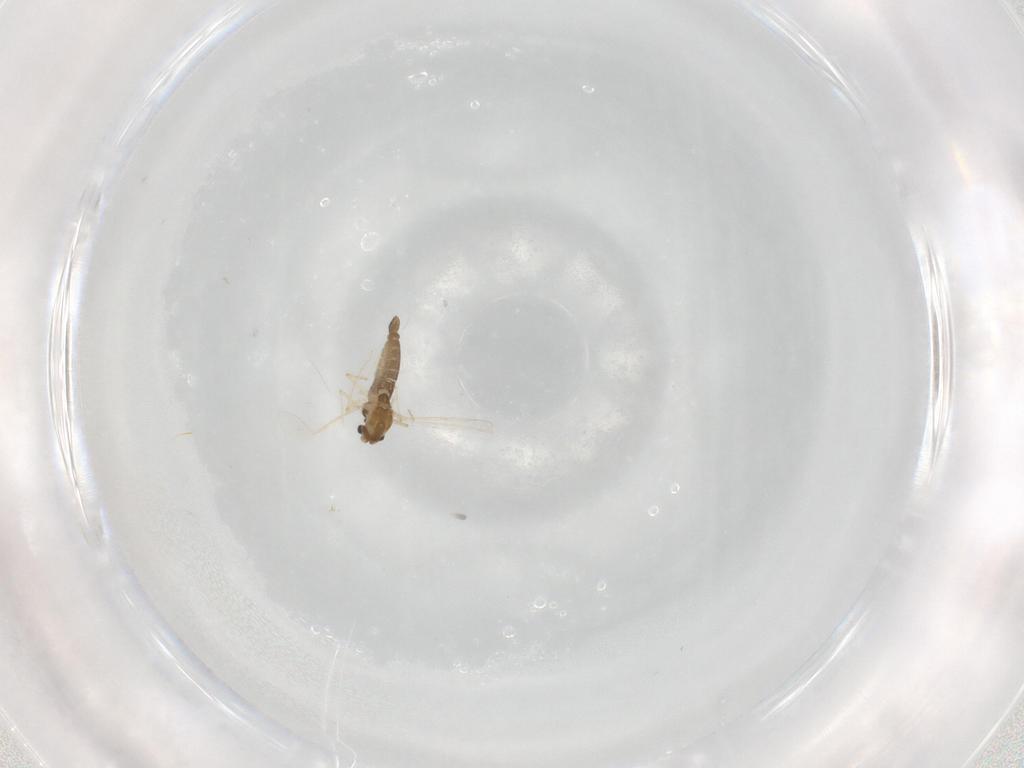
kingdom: Animalia
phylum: Arthropoda
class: Insecta
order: Diptera
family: Chironomidae
